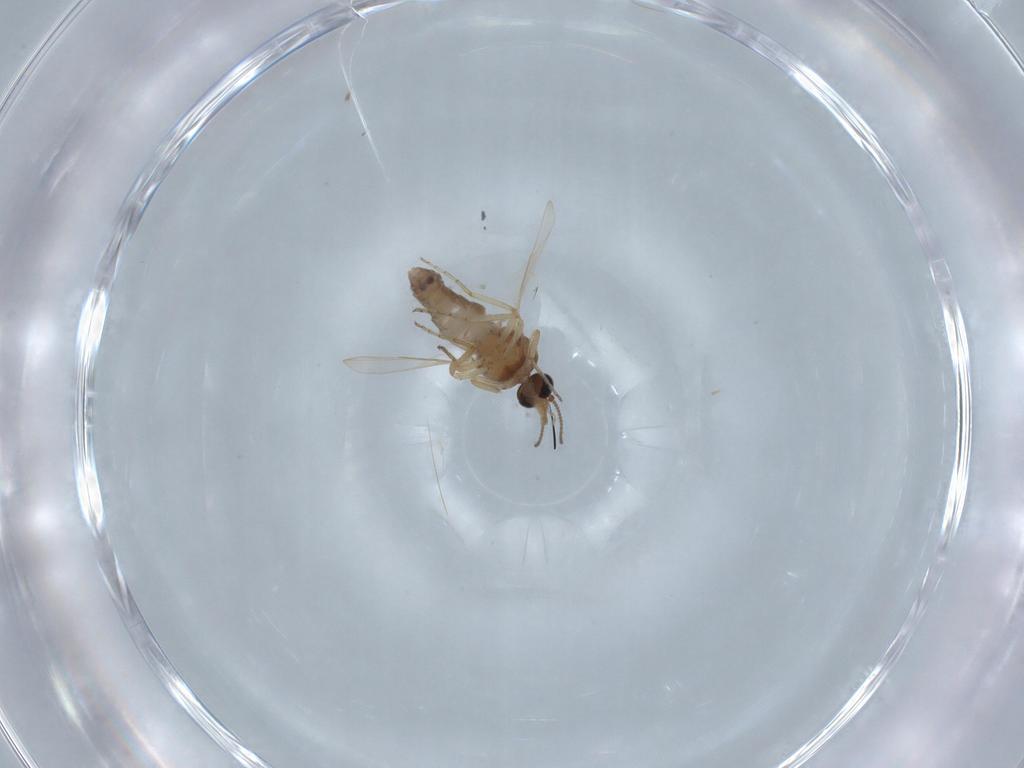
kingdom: Animalia
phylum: Arthropoda
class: Insecta
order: Diptera
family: Ceratopogonidae
